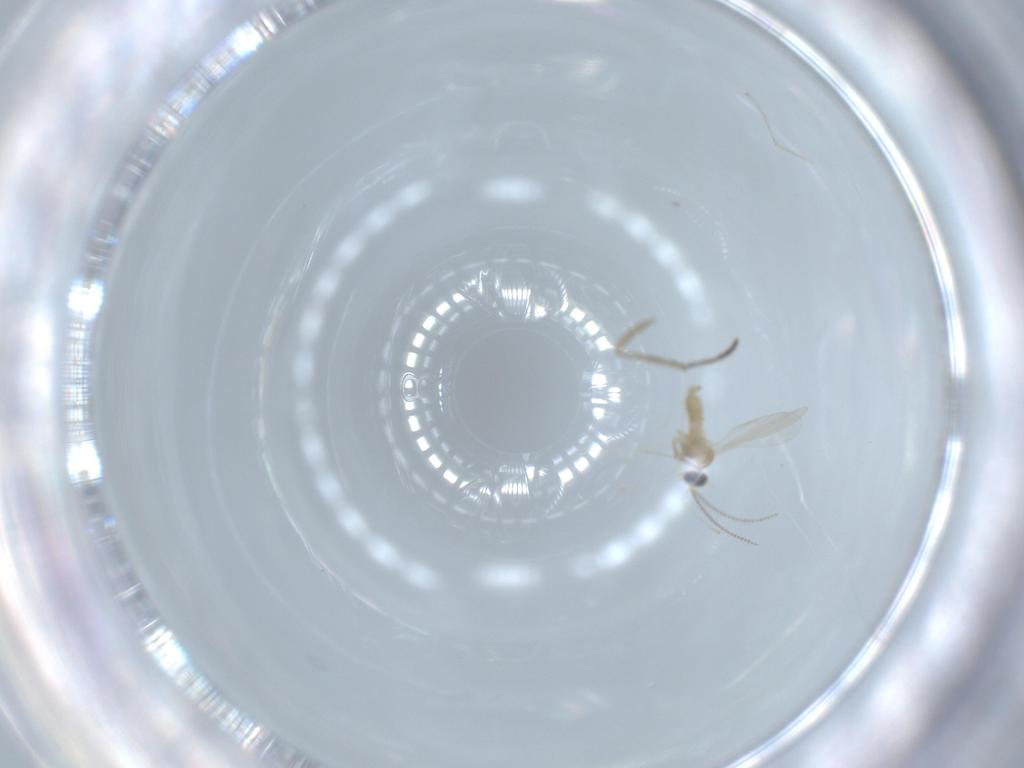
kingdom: Animalia
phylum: Arthropoda
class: Insecta
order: Diptera
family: Cecidomyiidae
